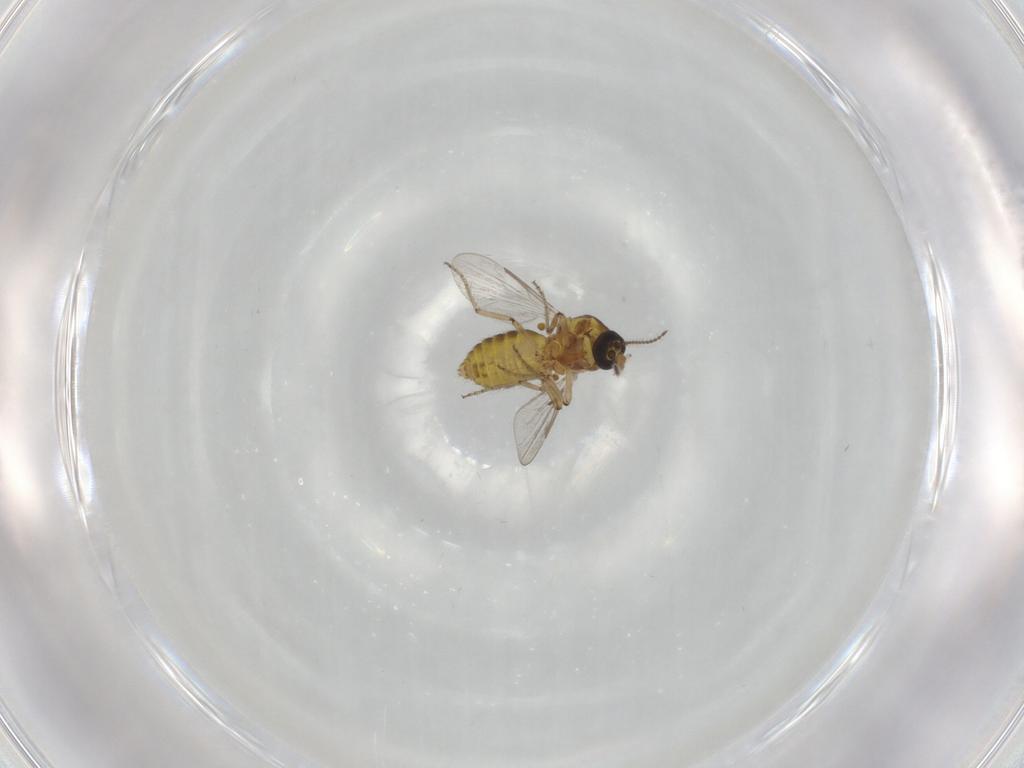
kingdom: Animalia
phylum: Arthropoda
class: Insecta
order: Diptera
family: Ceratopogonidae
